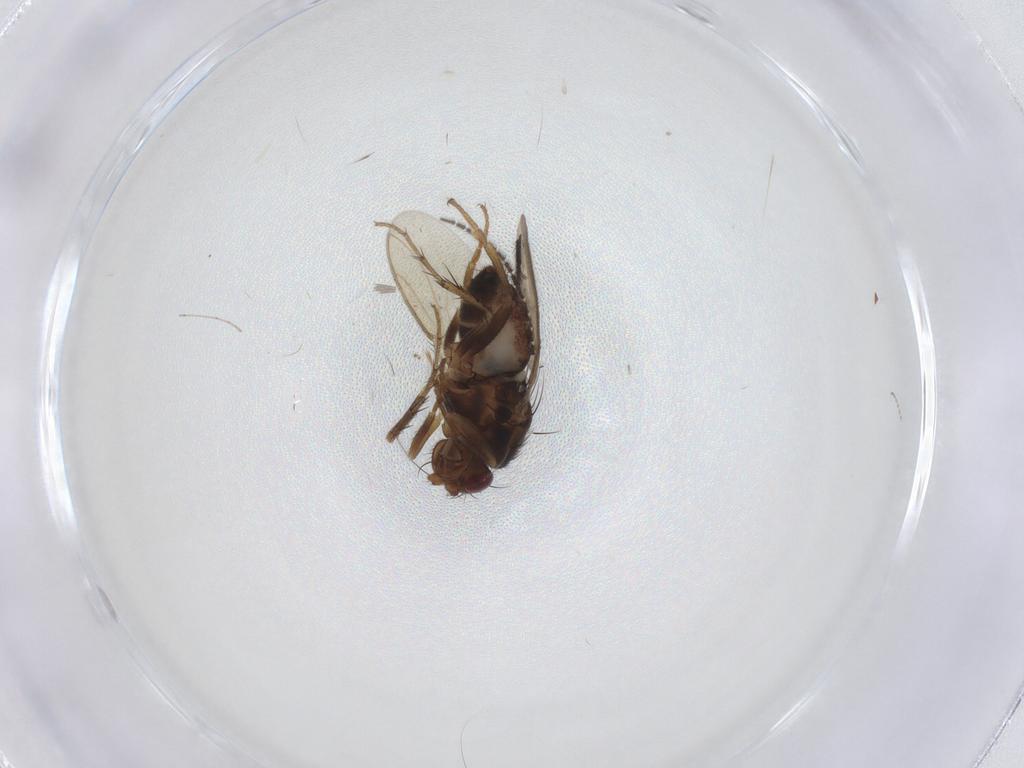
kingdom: Animalia
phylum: Arthropoda
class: Insecta
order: Diptera
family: Sphaeroceridae
